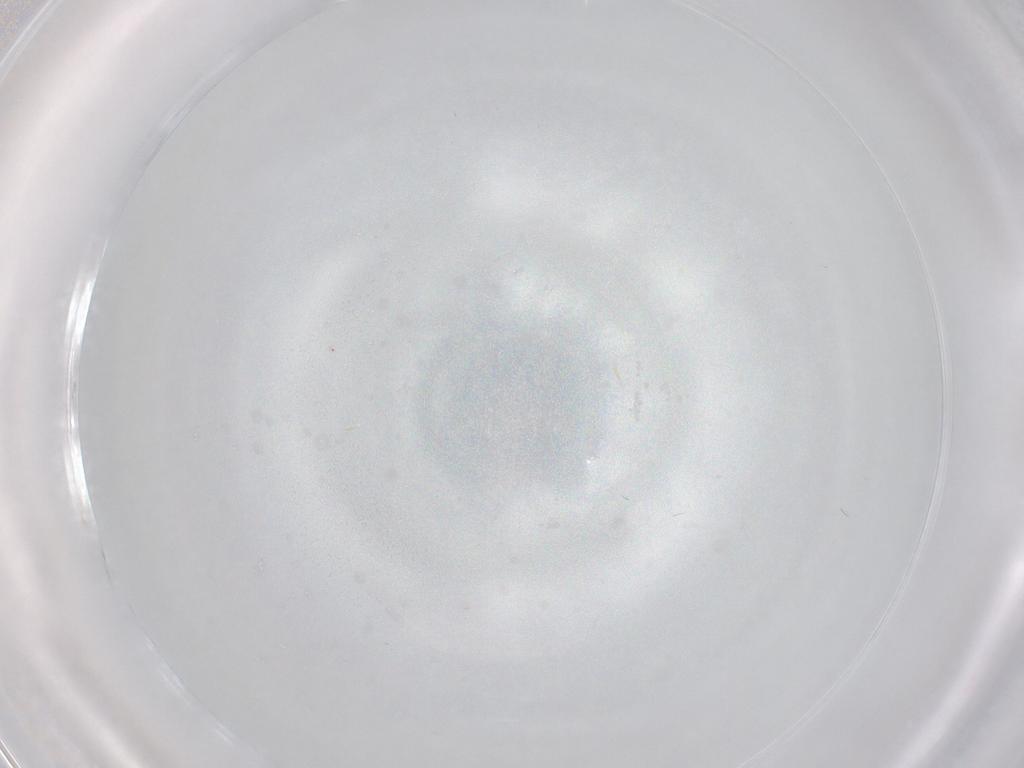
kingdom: Animalia
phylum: Arthropoda
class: Insecta
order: Diptera
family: Cecidomyiidae
